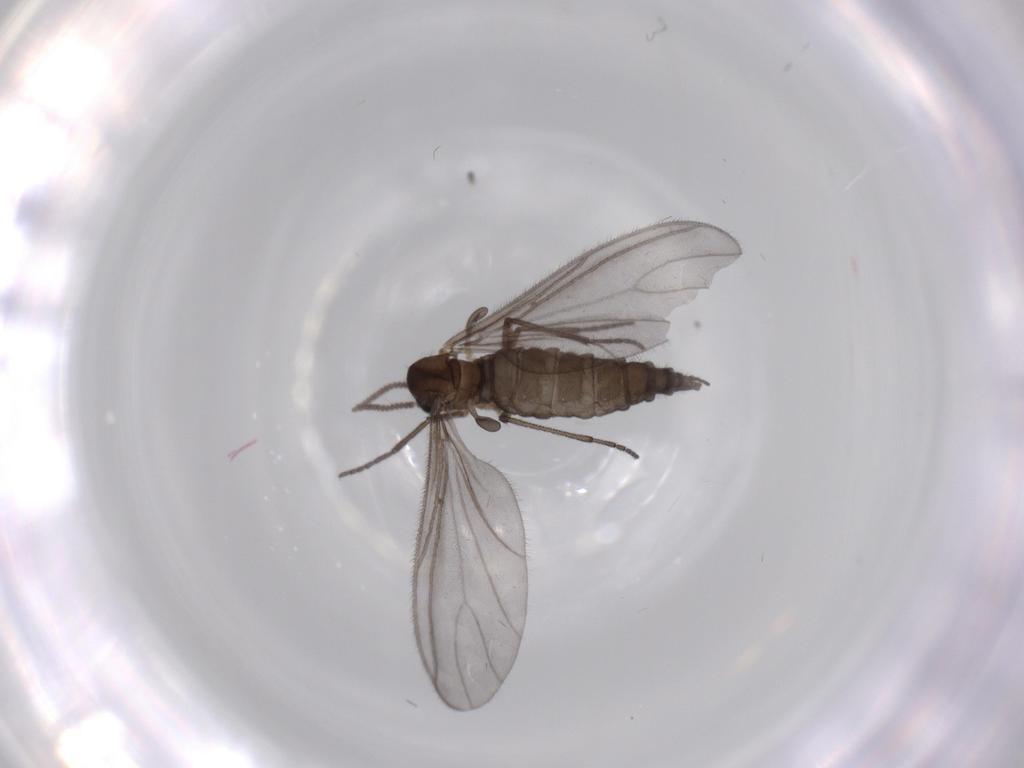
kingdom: Animalia
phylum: Arthropoda
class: Insecta
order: Diptera
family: Sciaridae
